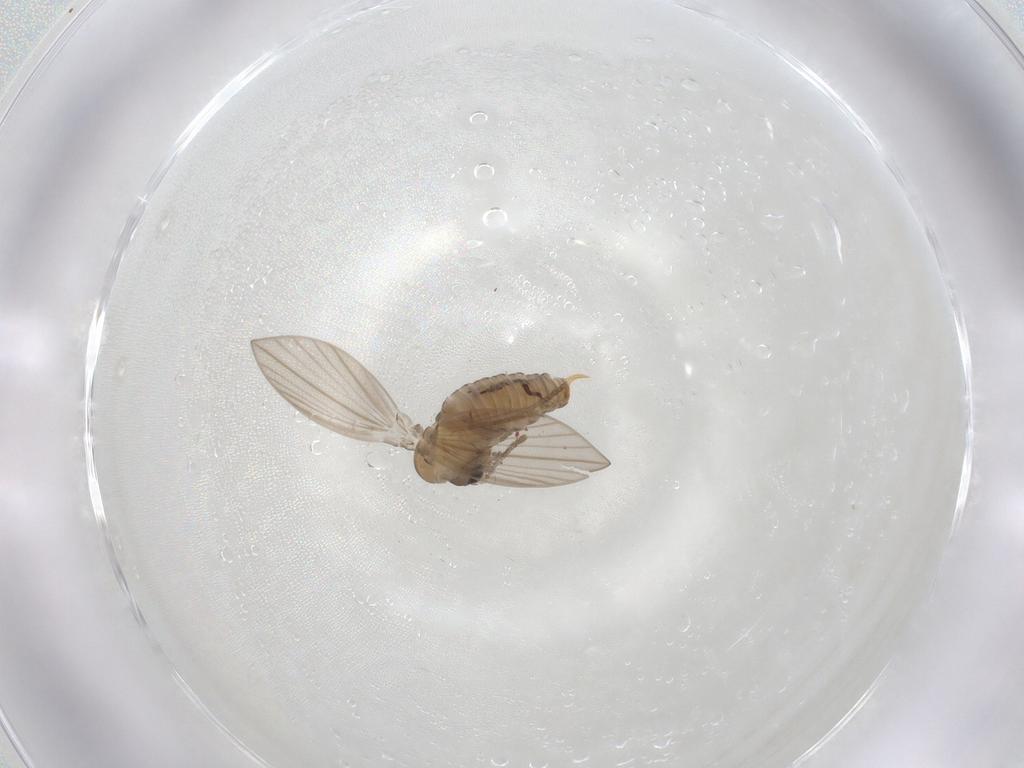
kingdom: Animalia
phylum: Arthropoda
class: Insecta
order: Diptera
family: Psychodidae
